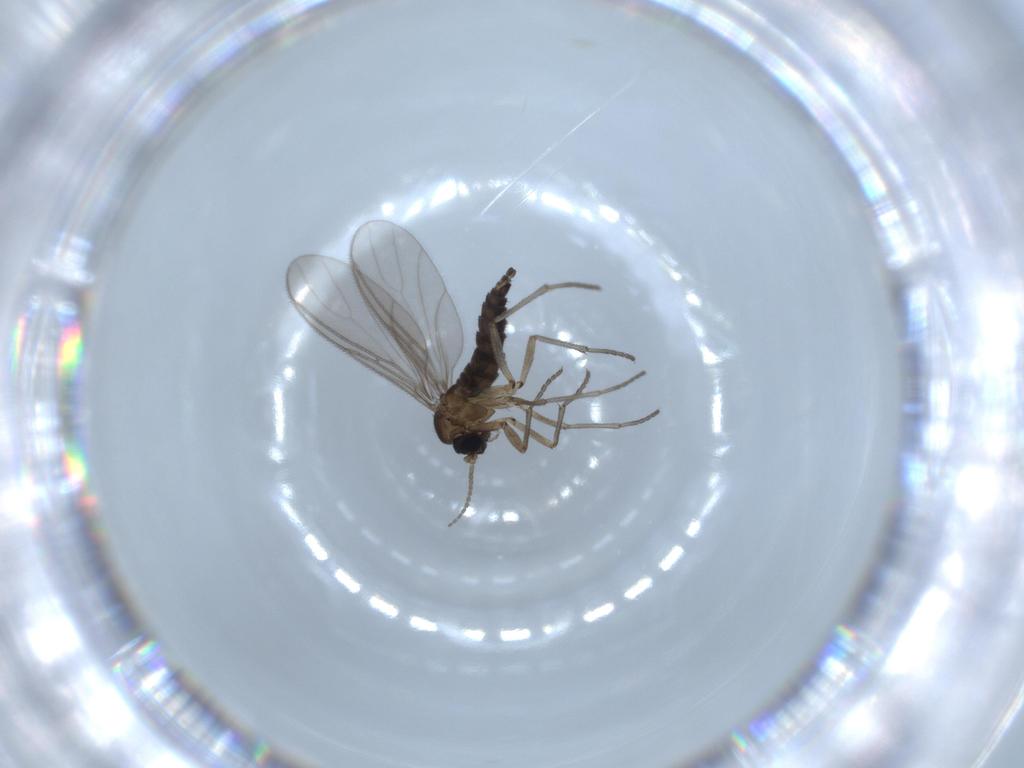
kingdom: Animalia
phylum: Arthropoda
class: Insecta
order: Diptera
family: Sciaridae
